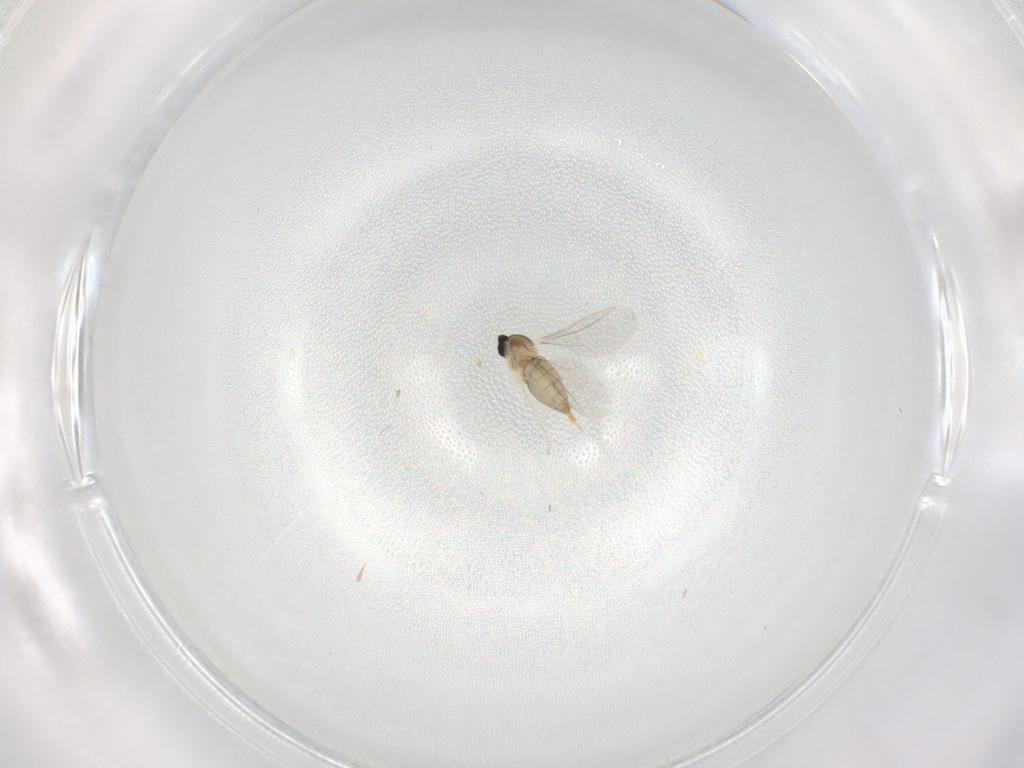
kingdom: Animalia
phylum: Arthropoda
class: Insecta
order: Diptera
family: Cecidomyiidae
